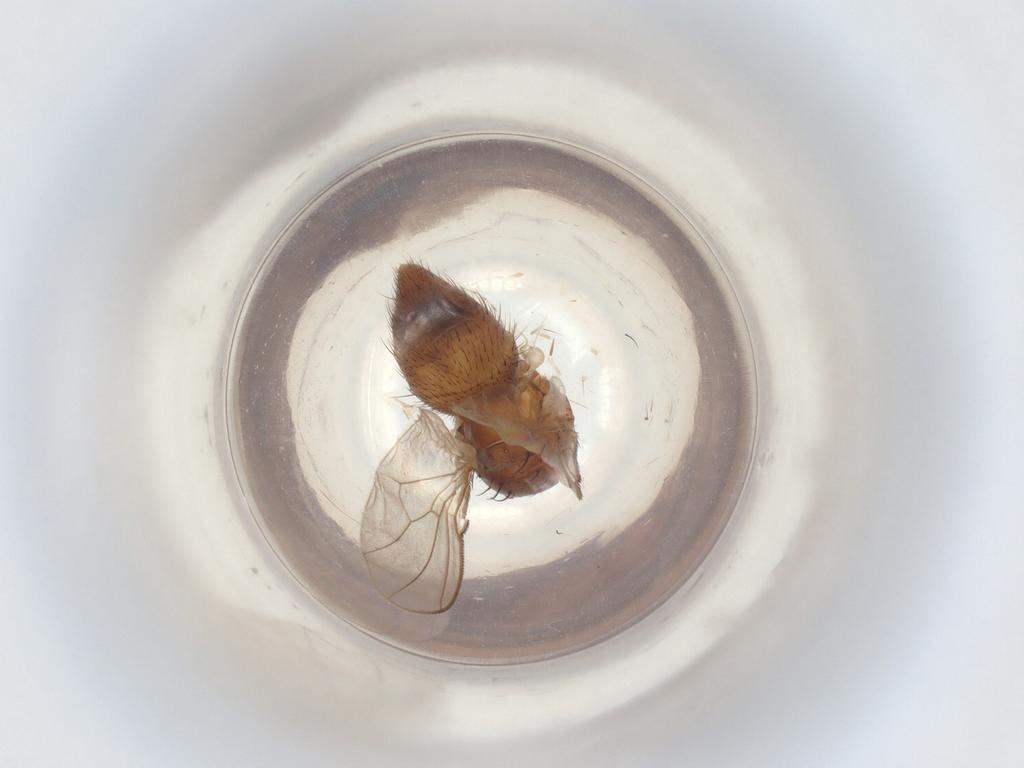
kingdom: Animalia
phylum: Arthropoda
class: Insecta
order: Diptera
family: Muscidae
